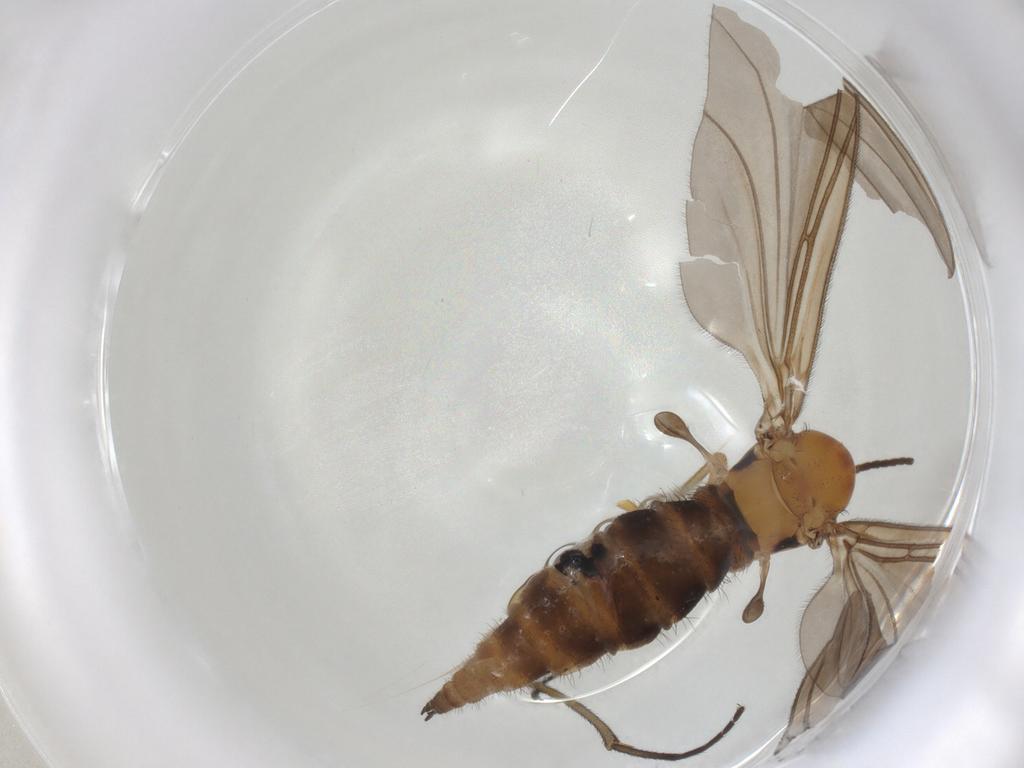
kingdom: Animalia
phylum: Arthropoda
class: Insecta
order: Diptera
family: Sciaridae
